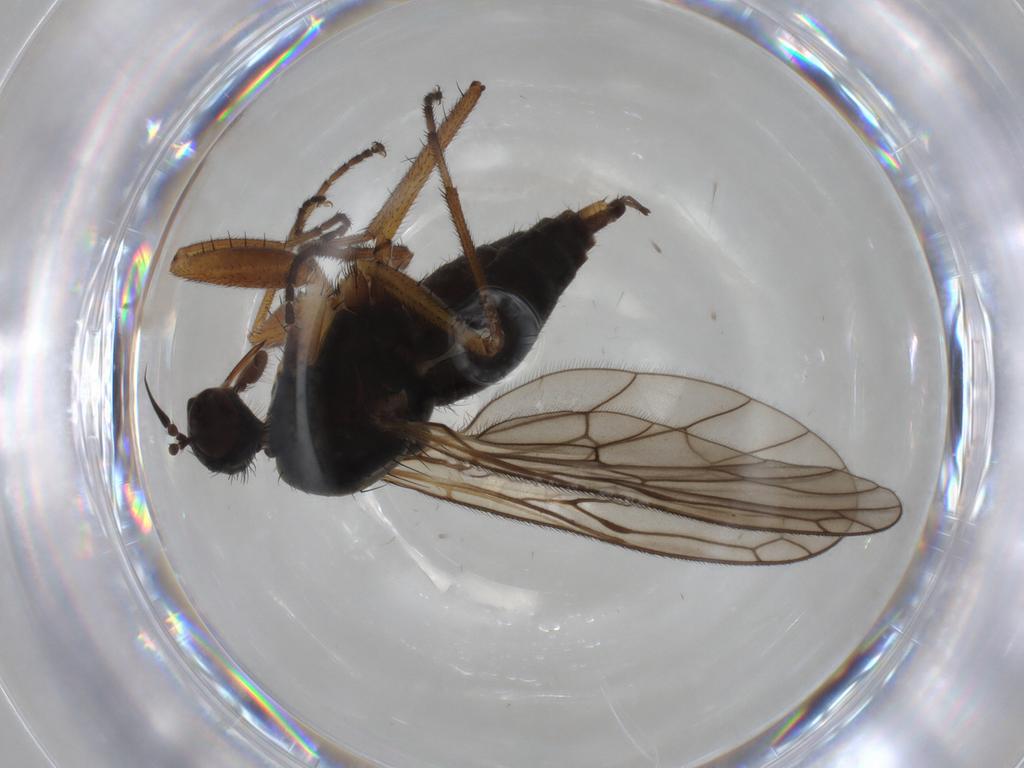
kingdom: Animalia
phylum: Arthropoda
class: Insecta
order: Diptera
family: Empididae
